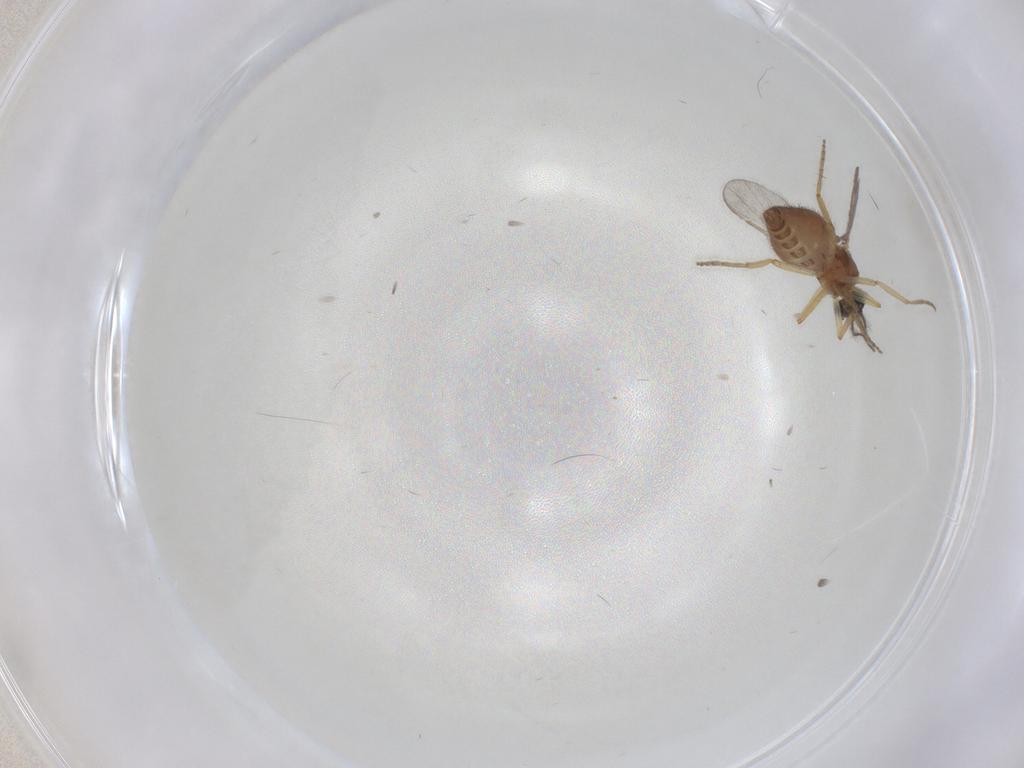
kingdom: Animalia
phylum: Arthropoda
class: Insecta
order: Diptera
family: Ceratopogonidae
